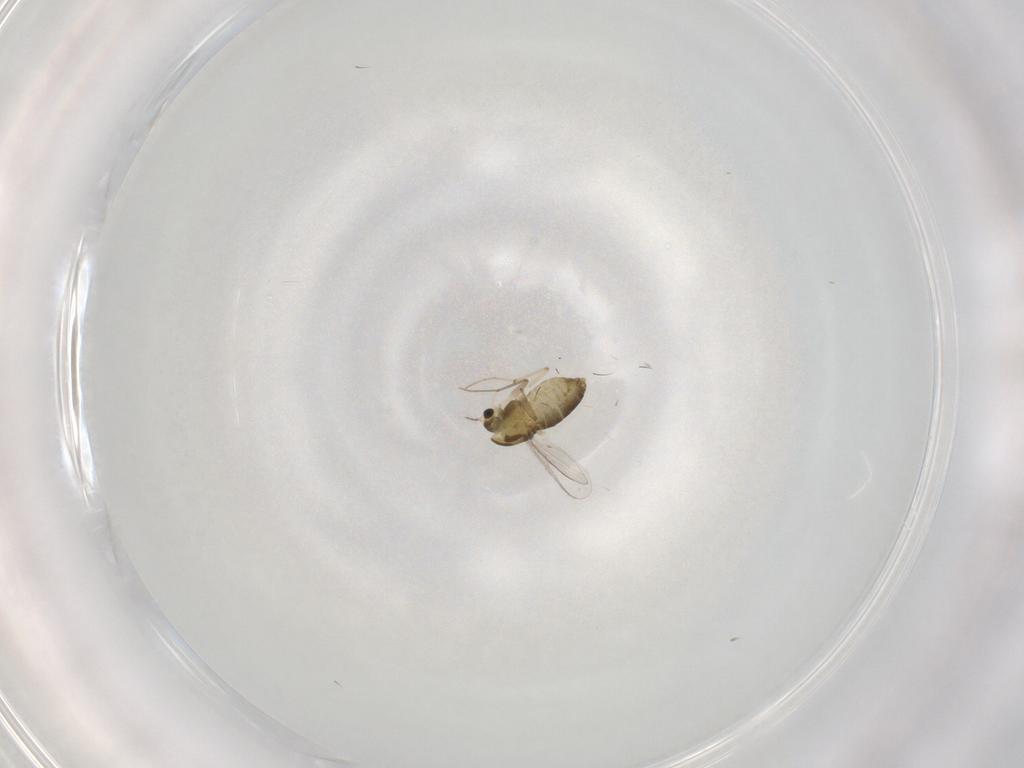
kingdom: Animalia
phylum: Arthropoda
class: Insecta
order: Diptera
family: Chironomidae
